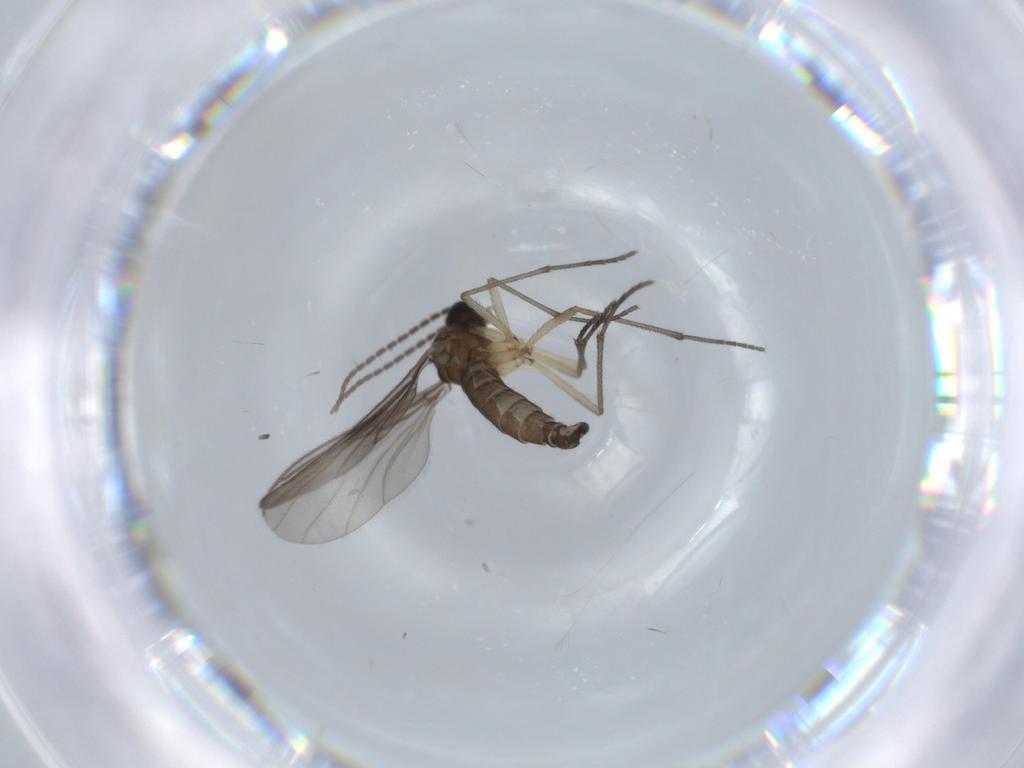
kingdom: Animalia
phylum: Arthropoda
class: Insecta
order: Diptera
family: Sciaridae
